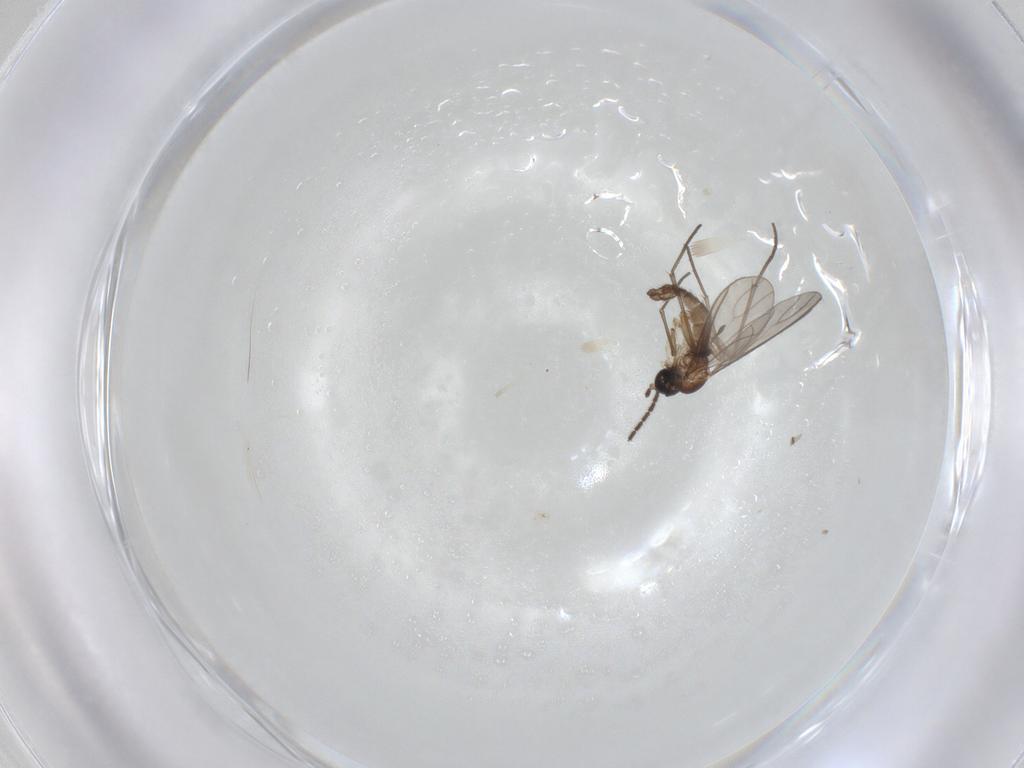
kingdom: Animalia
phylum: Arthropoda
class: Insecta
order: Diptera
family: Sciaridae
